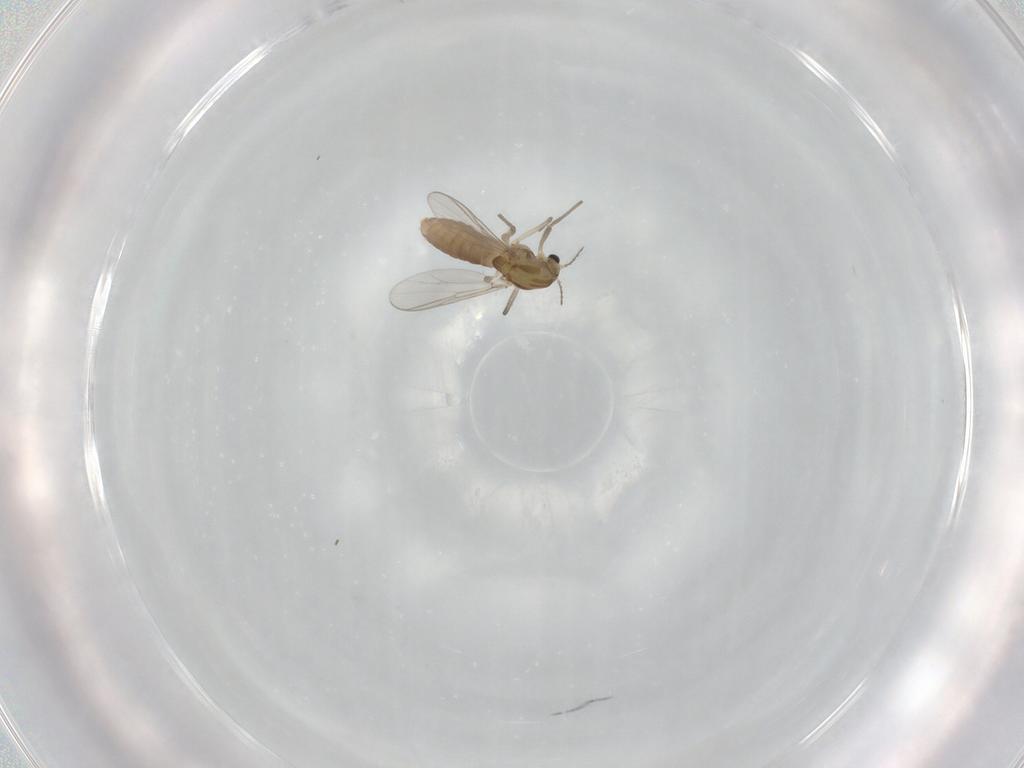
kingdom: Animalia
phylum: Arthropoda
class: Insecta
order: Diptera
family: Chironomidae
